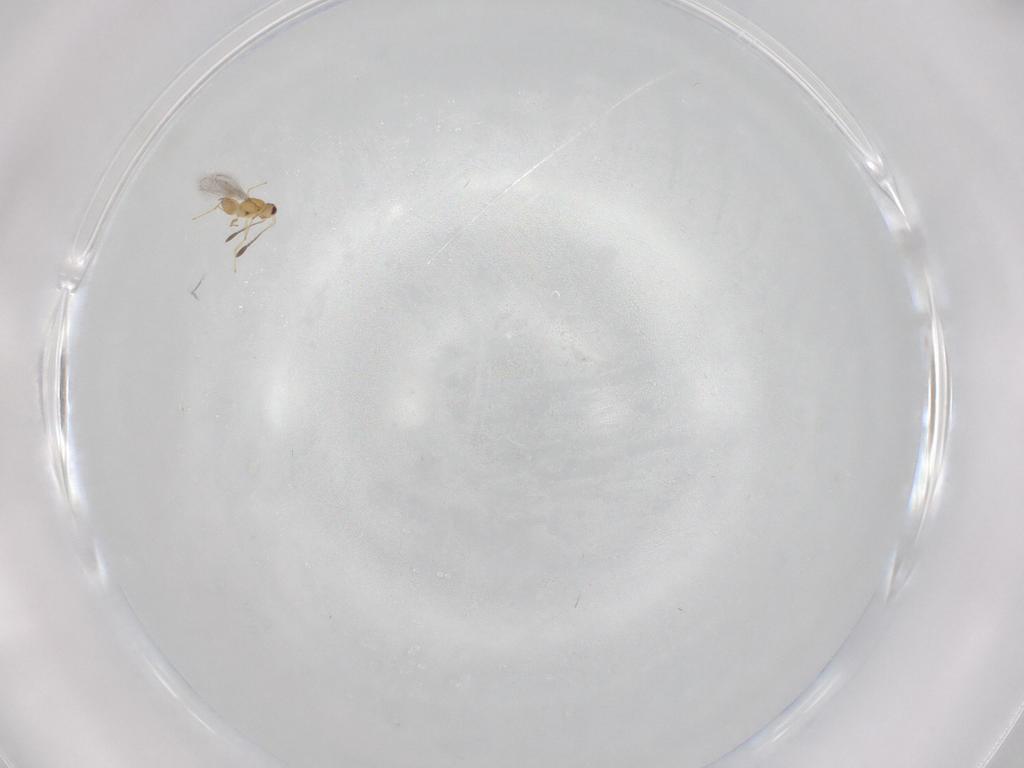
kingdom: Animalia
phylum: Arthropoda
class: Insecta
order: Hymenoptera
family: Mymaridae
